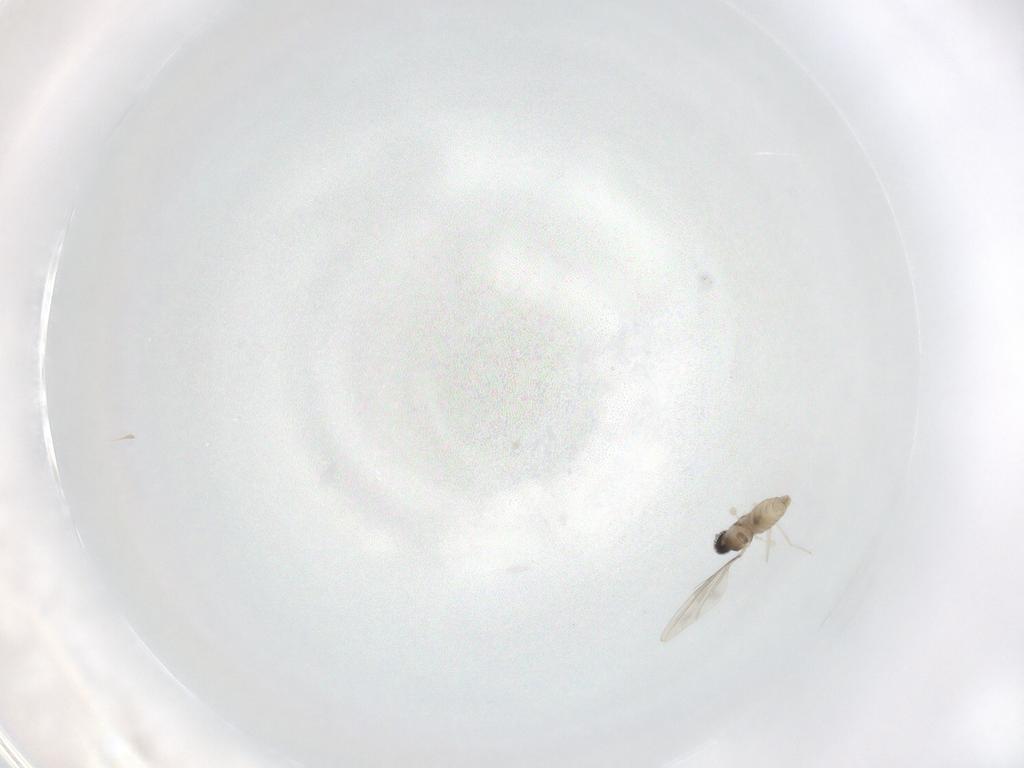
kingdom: Animalia
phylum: Arthropoda
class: Insecta
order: Diptera
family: Cecidomyiidae
